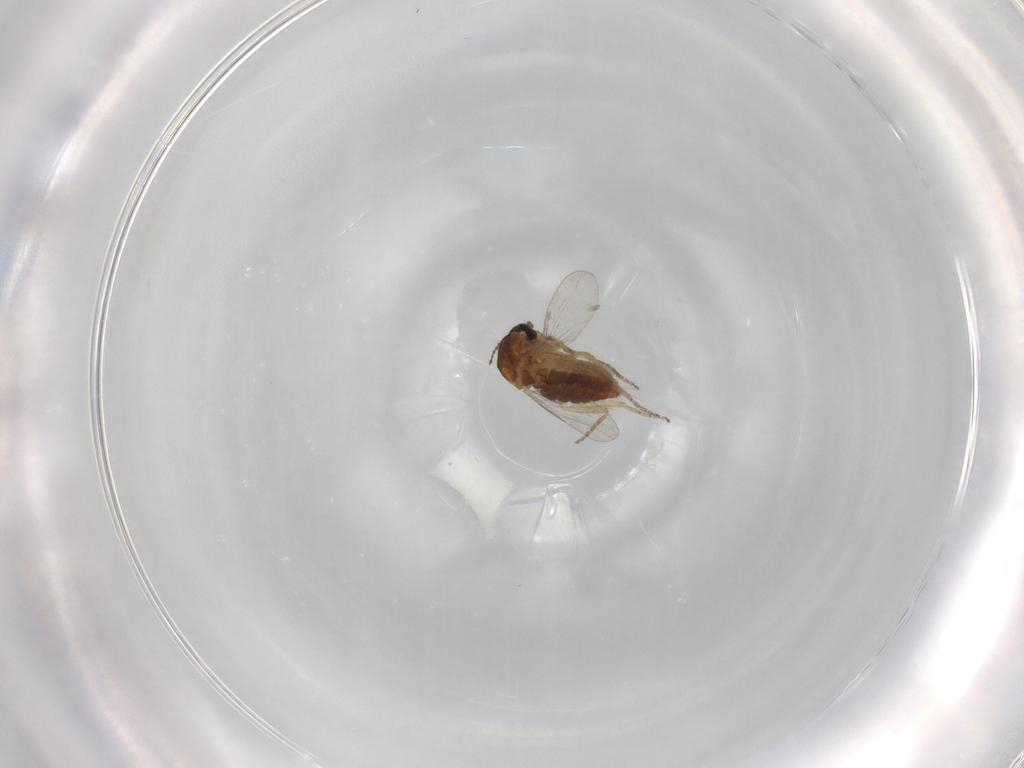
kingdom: Animalia
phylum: Arthropoda
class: Insecta
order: Diptera
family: Ceratopogonidae
